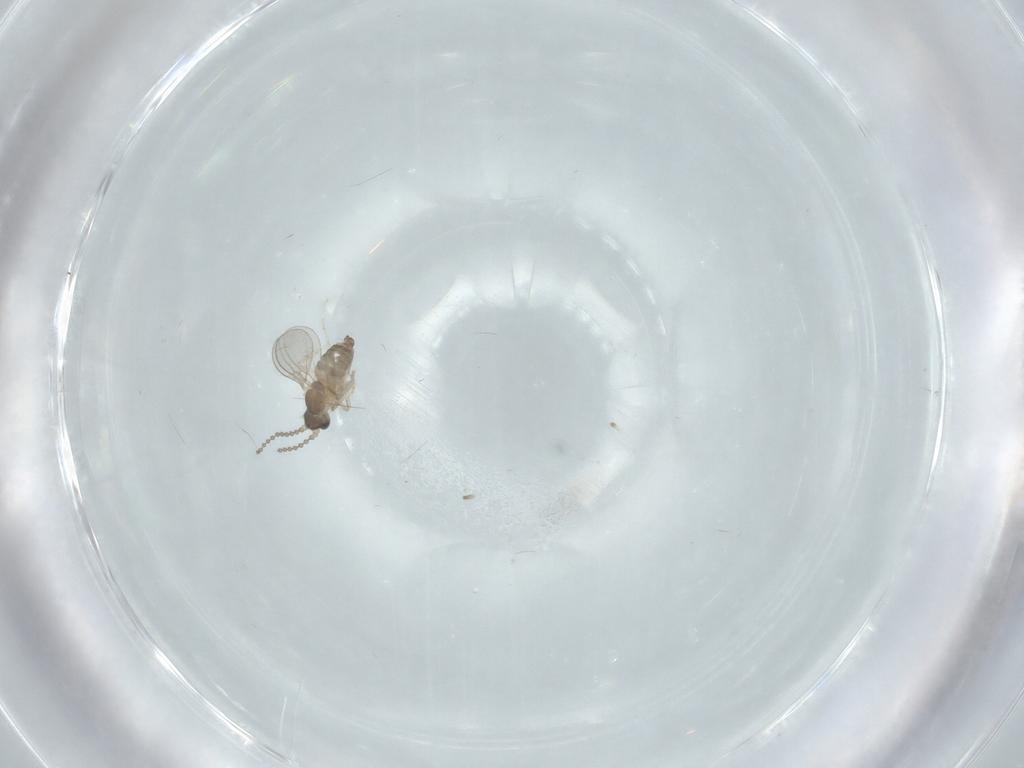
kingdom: Animalia
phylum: Arthropoda
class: Insecta
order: Diptera
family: Cecidomyiidae
